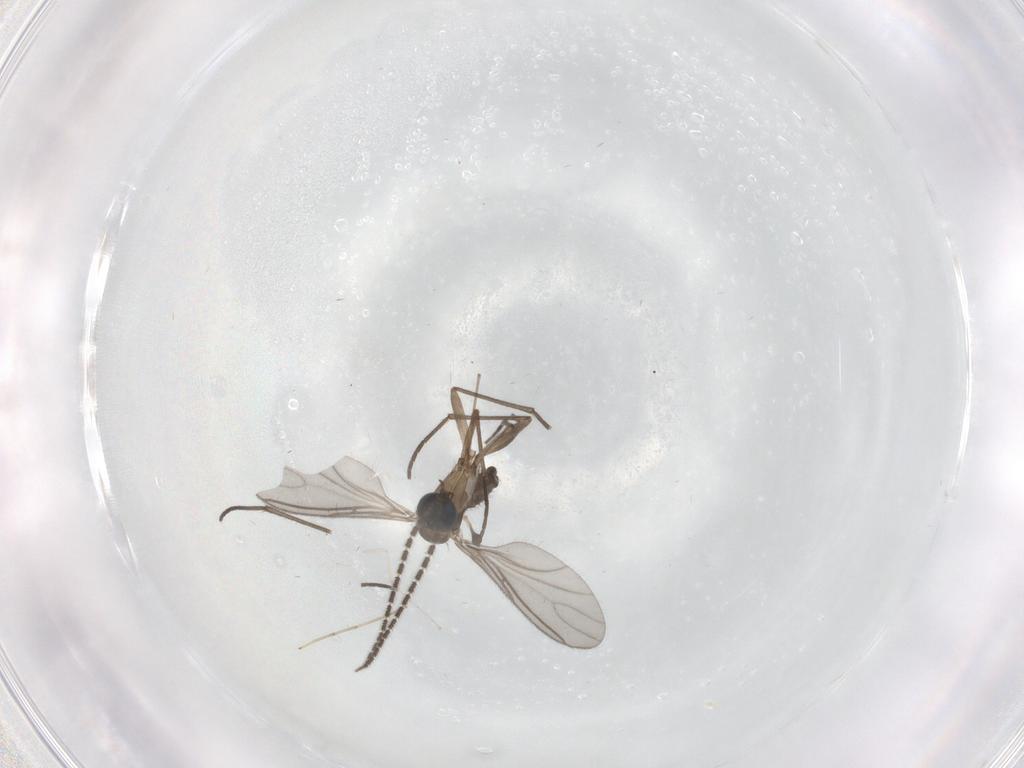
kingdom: Animalia
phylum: Arthropoda
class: Insecta
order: Diptera
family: Sciaridae
